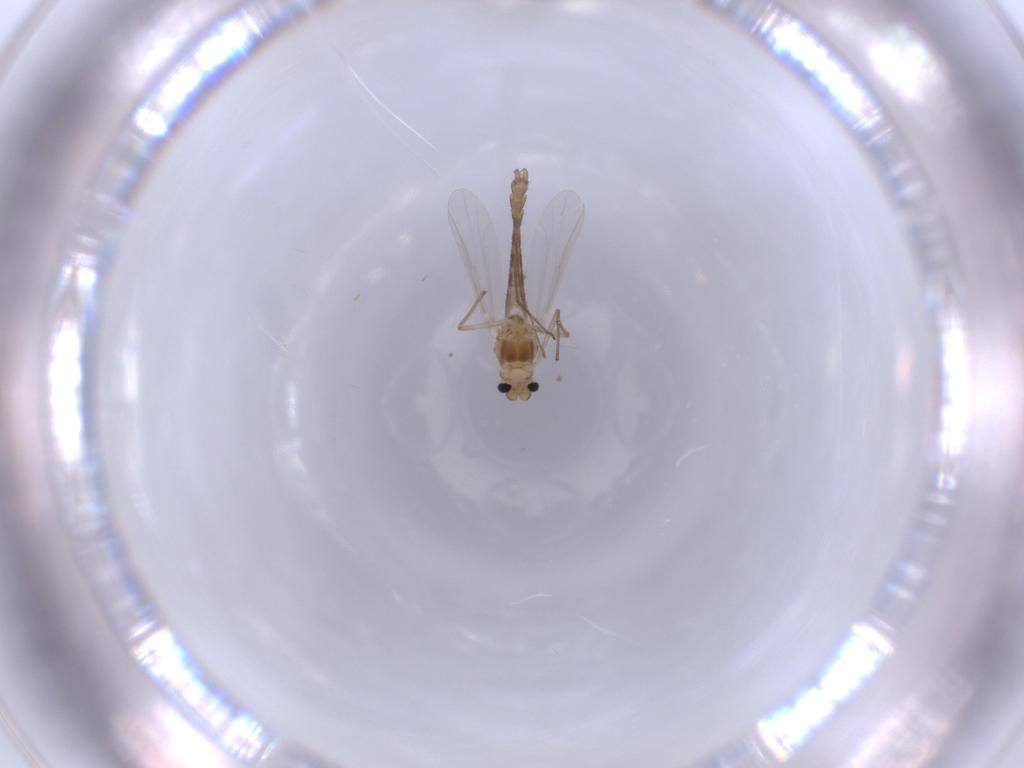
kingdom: Animalia
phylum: Arthropoda
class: Insecta
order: Diptera
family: Chironomidae
